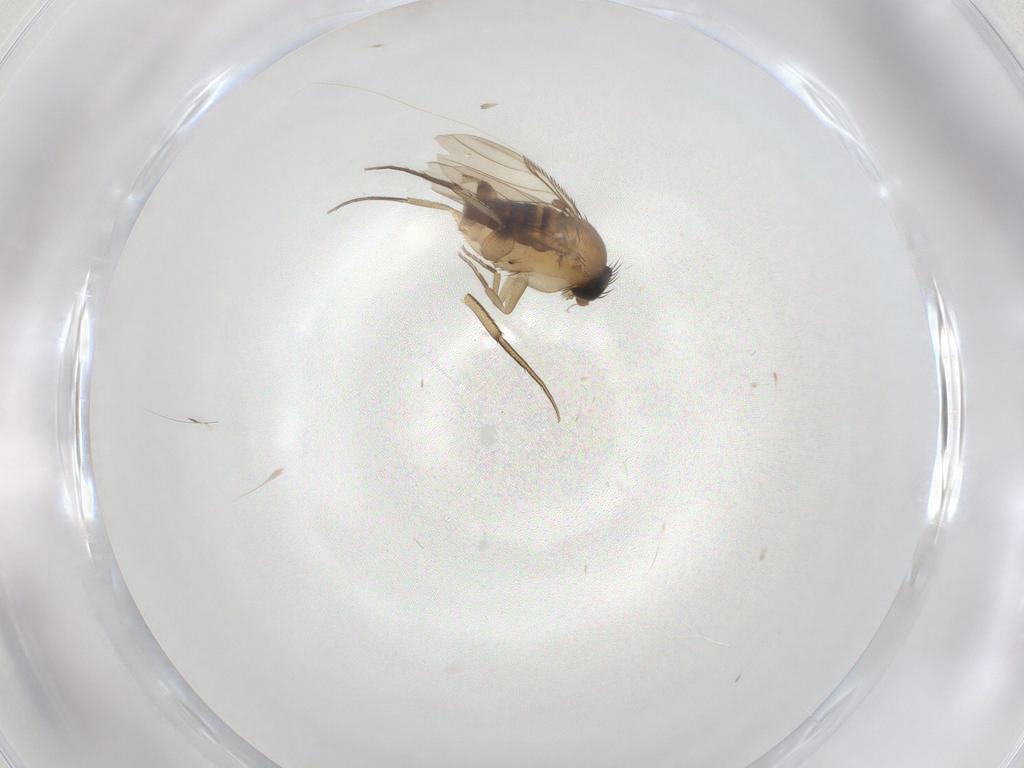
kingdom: Animalia
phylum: Arthropoda
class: Insecta
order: Diptera
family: Phoridae
